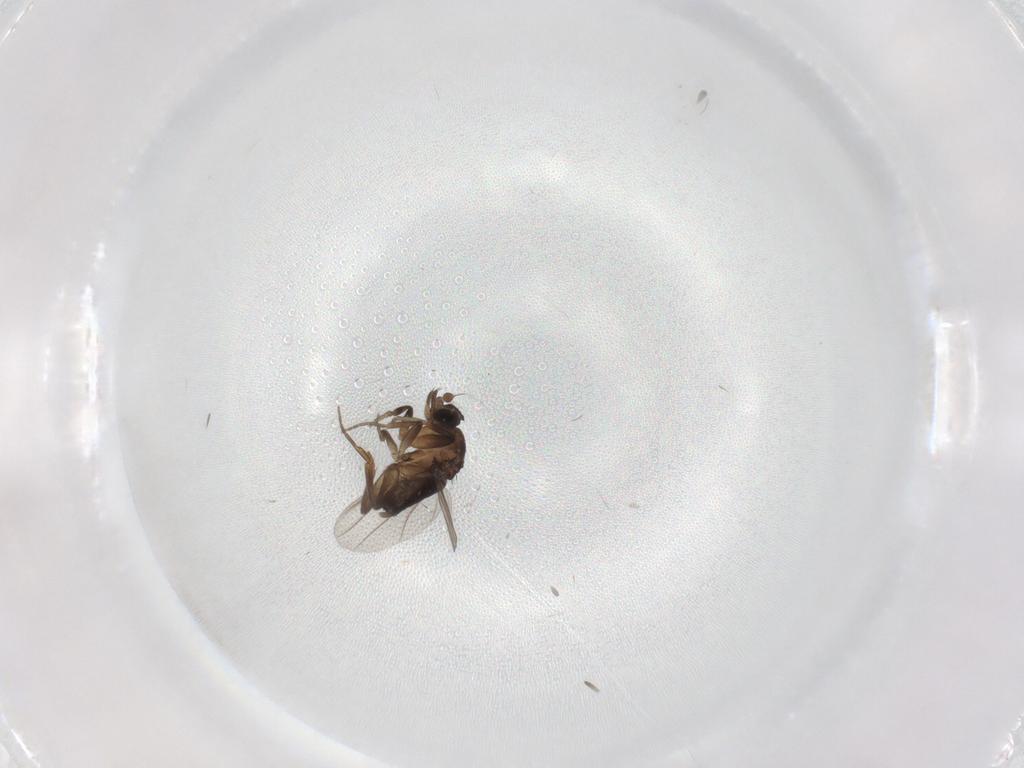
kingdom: Animalia
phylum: Arthropoda
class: Insecta
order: Diptera
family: Phoridae
